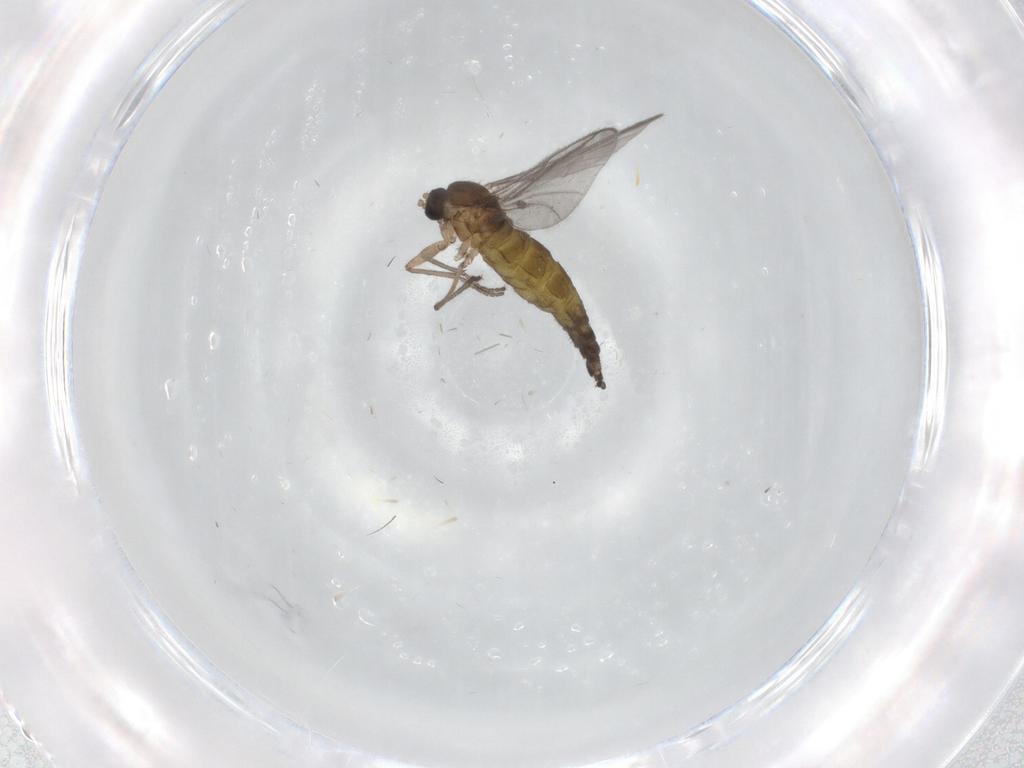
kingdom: Animalia
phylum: Arthropoda
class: Insecta
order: Diptera
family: Sciaridae
